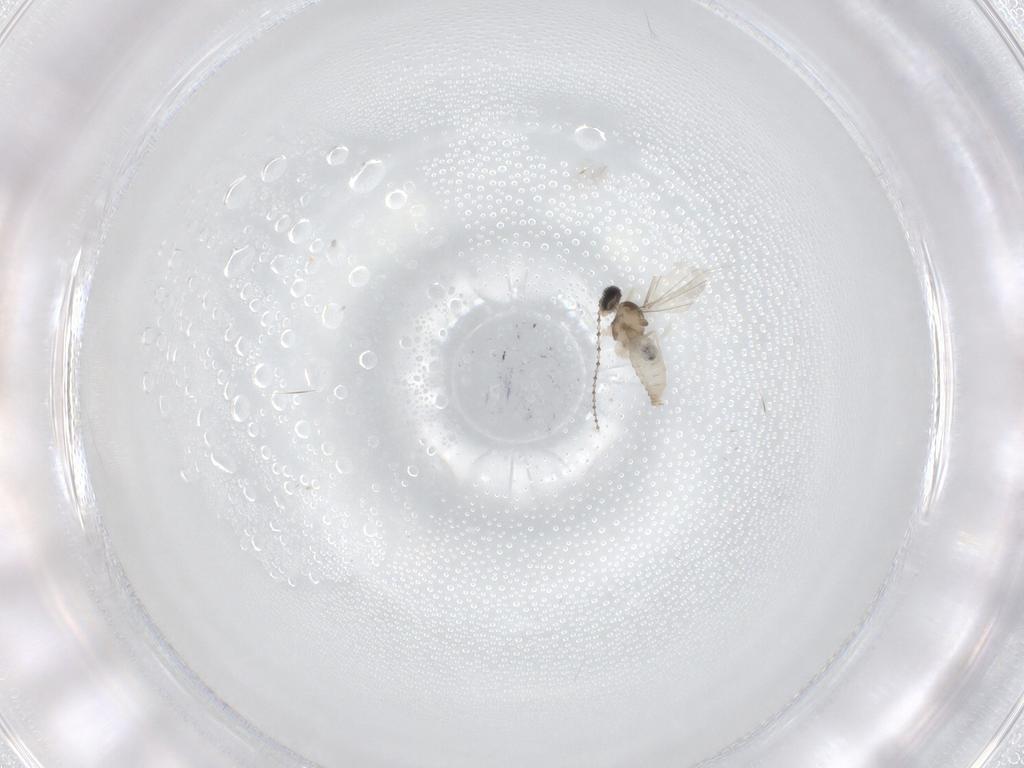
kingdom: Animalia
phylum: Arthropoda
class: Insecta
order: Diptera
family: Cecidomyiidae
